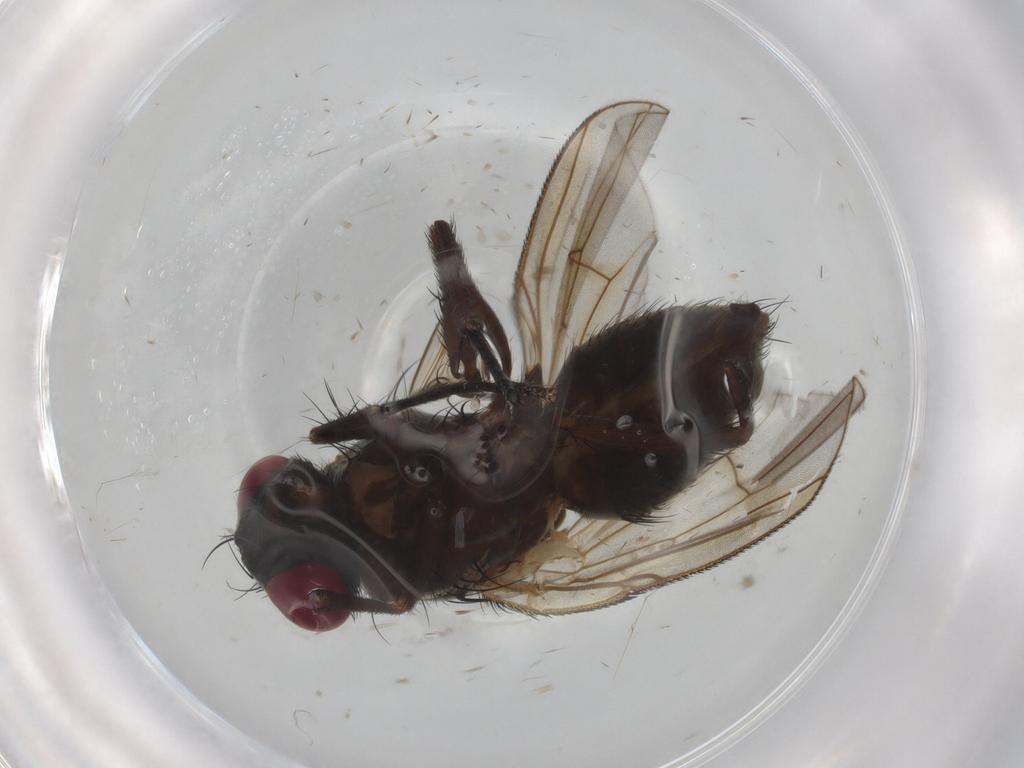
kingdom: Animalia
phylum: Arthropoda
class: Insecta
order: Diptera
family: Muscidae
